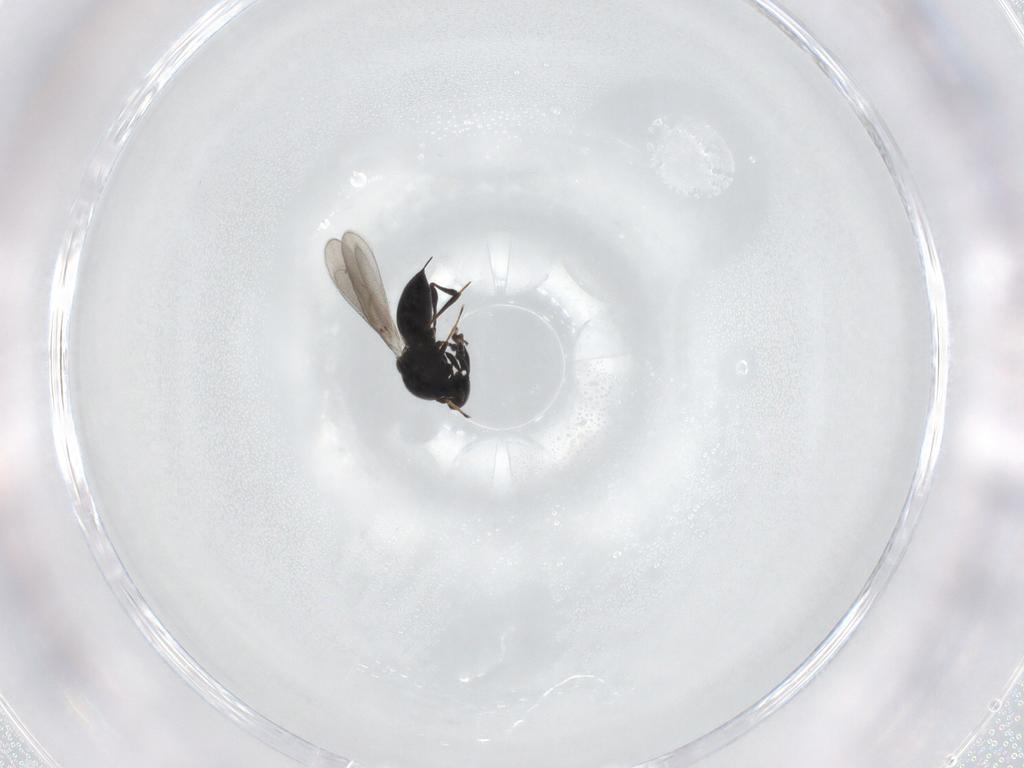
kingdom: Animalia
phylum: Arthropoda
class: Insecta
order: Hymenoptera
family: Platygastridae
